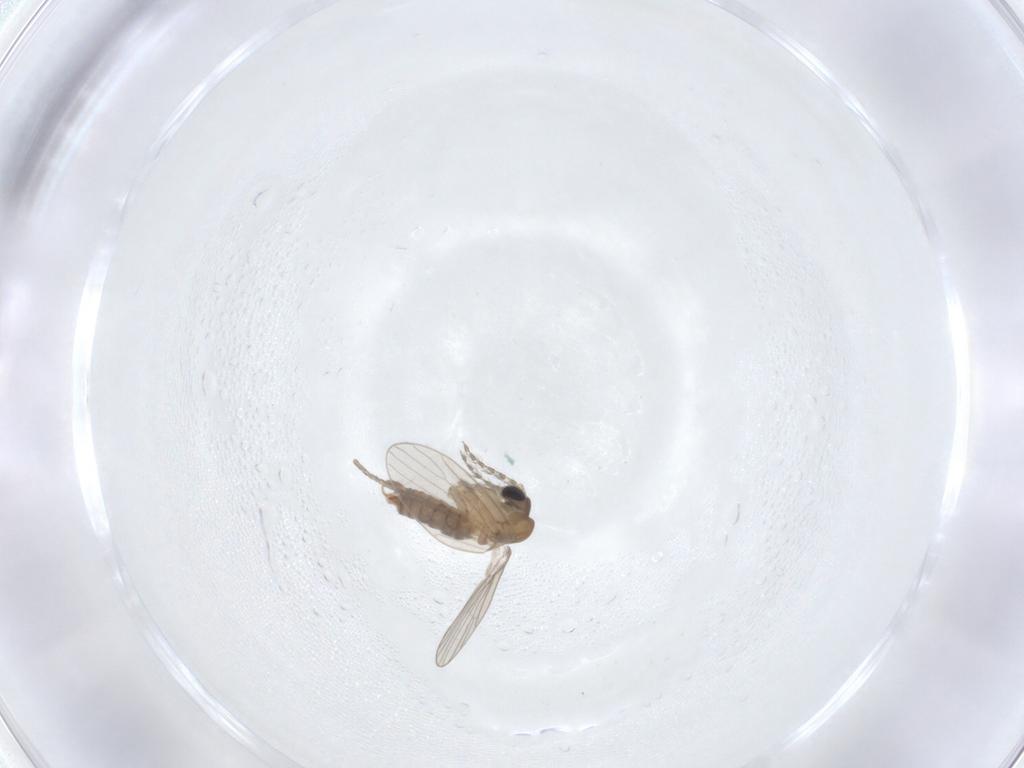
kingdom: Animalia
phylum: Arthropoda
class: Insecta
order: Diptera
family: Psychodidae
